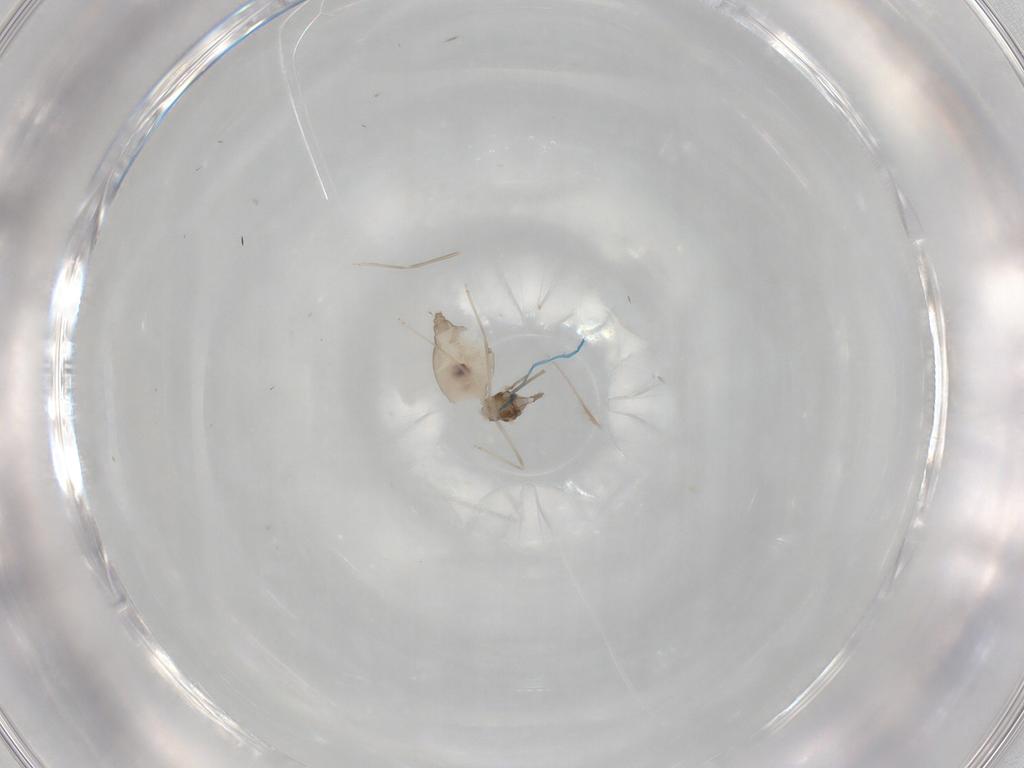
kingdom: Animalia
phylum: Arthropoda
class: Insecta
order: Diptera
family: Cecidomyiidae
